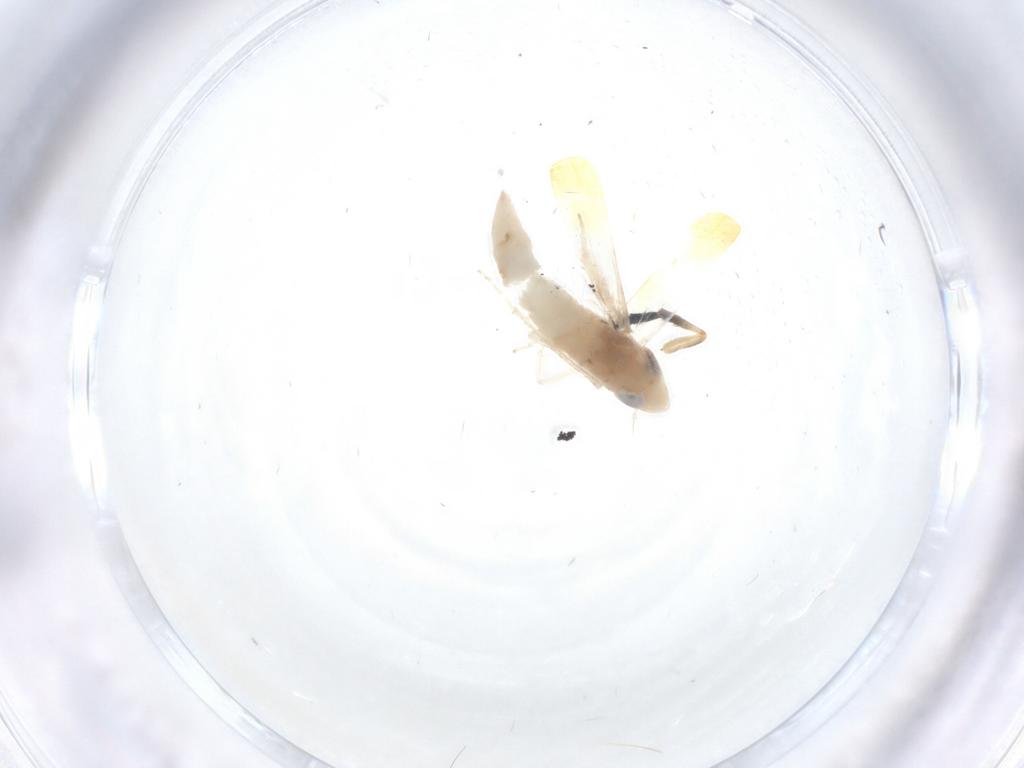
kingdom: Animalia
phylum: Arthropoda
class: Insecta
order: Hemiptera
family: Cicadellidae
